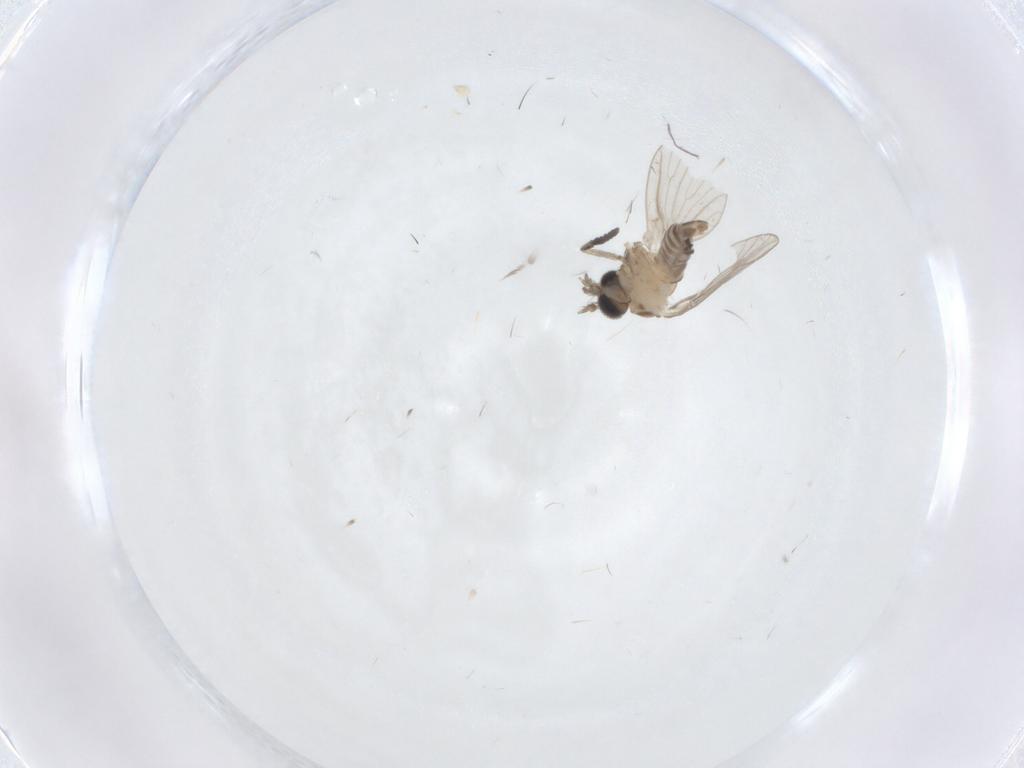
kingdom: Animalia
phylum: Arthropoda
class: Insecta
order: Diptera
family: Psychodidae
